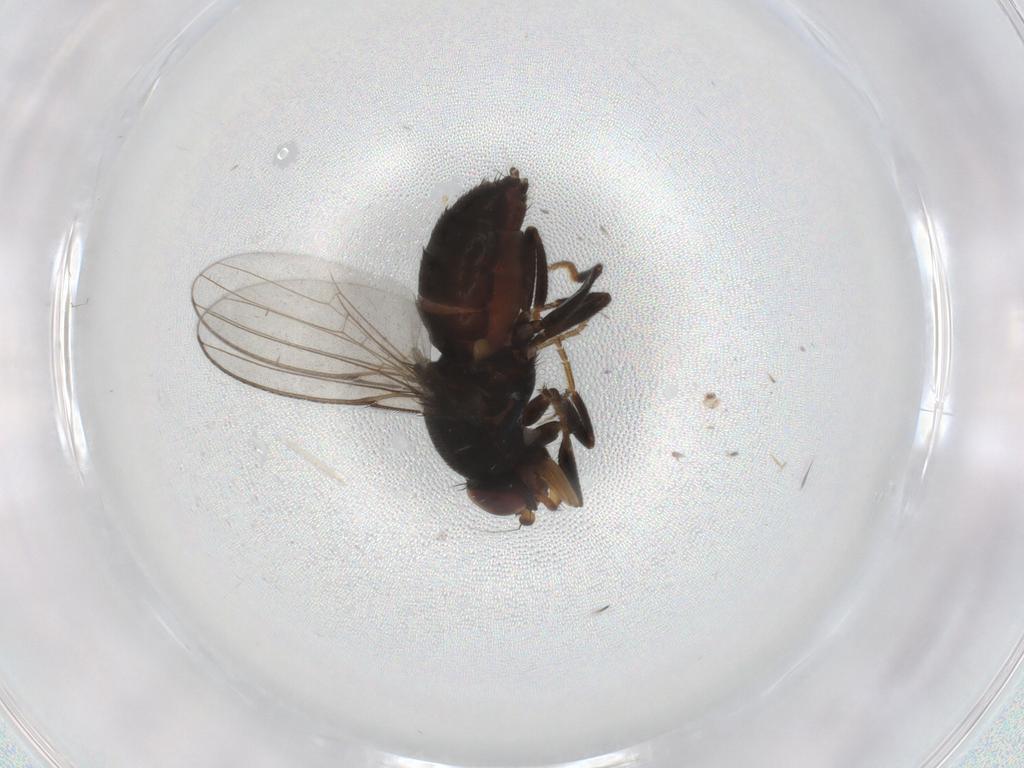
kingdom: Animalia
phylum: Arthropoda
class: Insecta
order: Diptera
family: Milichiidae
